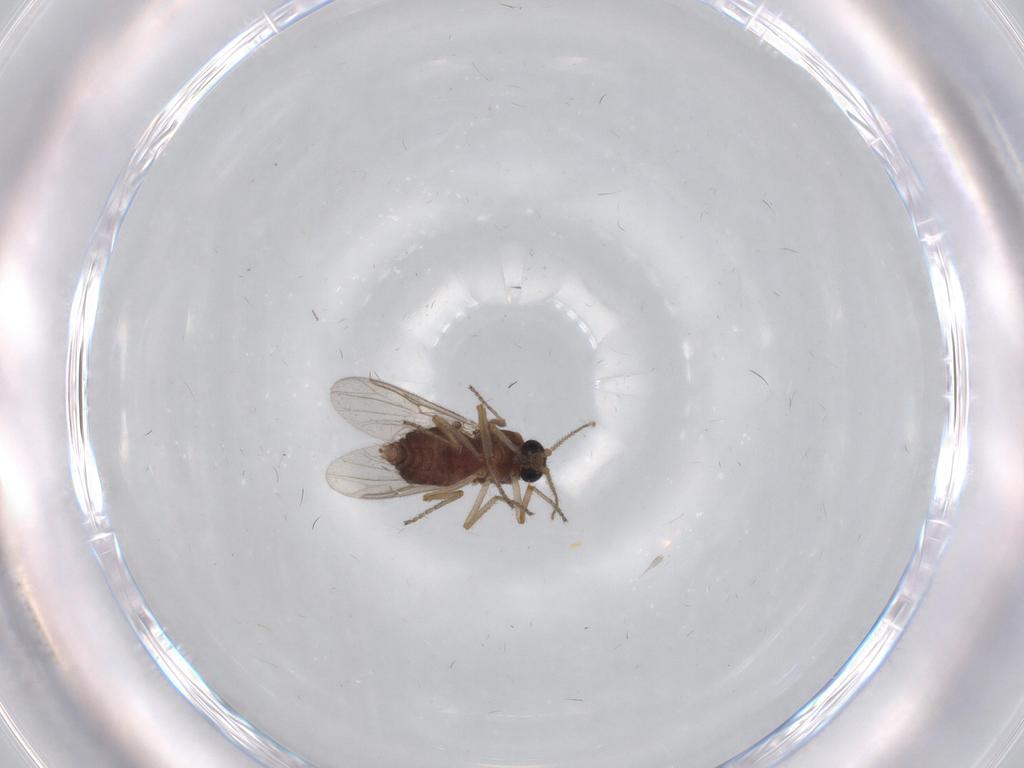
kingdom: Animalia
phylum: Arthropoda
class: Insecta
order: Diptera
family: Ceratopogonidae
